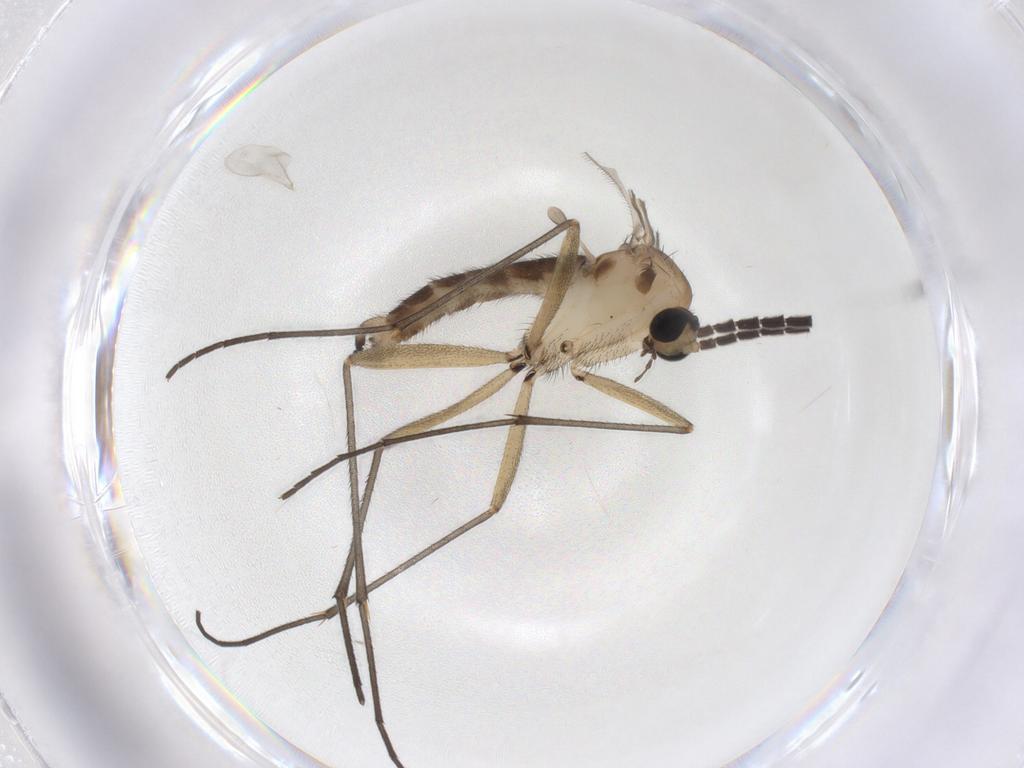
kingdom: Animalia
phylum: Arthropoda
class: Insecta
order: Diptera
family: Sciaridae
